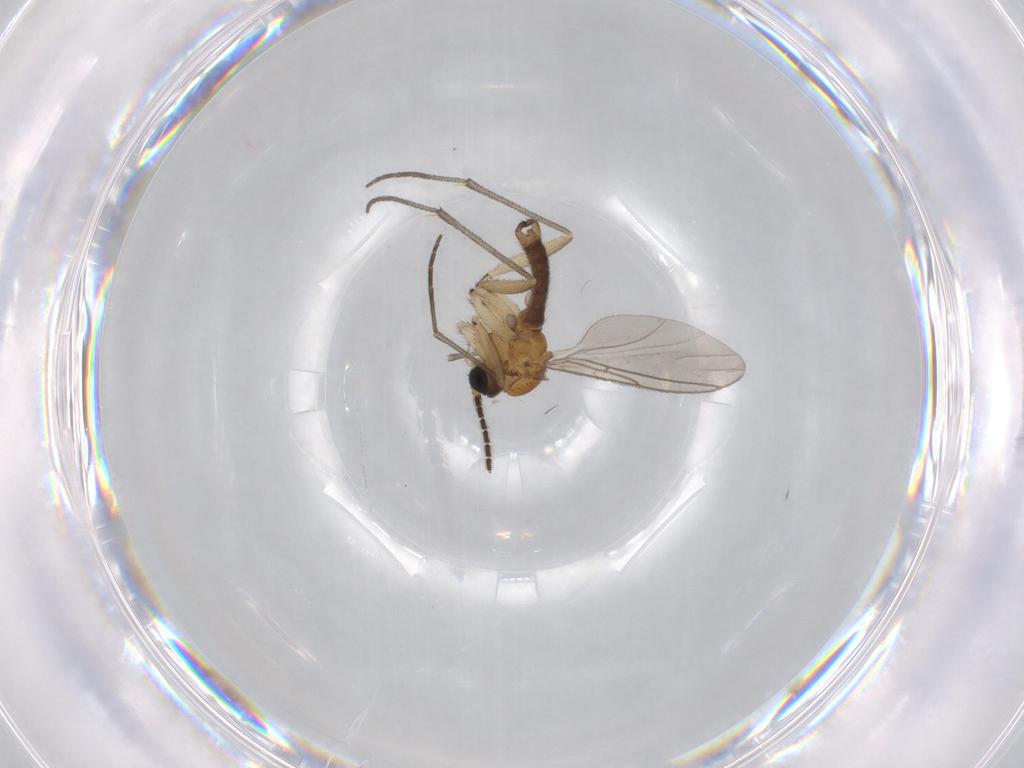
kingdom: Animalia
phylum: Arthropoda
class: Insecta
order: Diptera
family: Sciaridae
